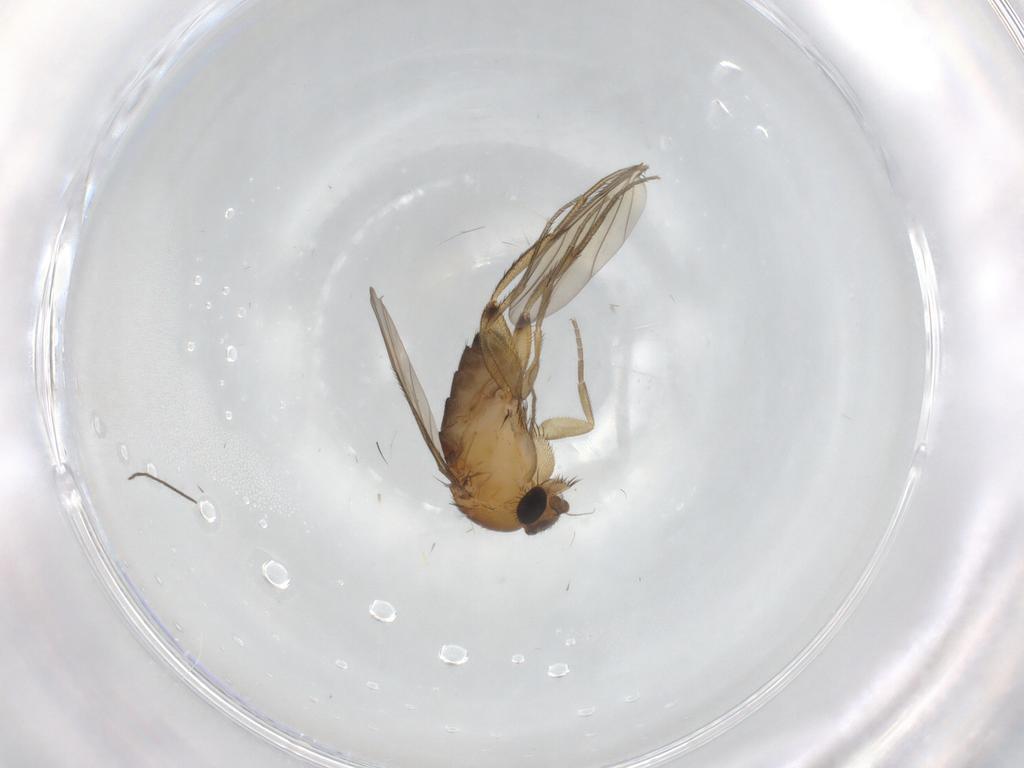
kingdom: Animalia
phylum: Arthropoda
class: Insecta
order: Diptera
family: Phoridae
